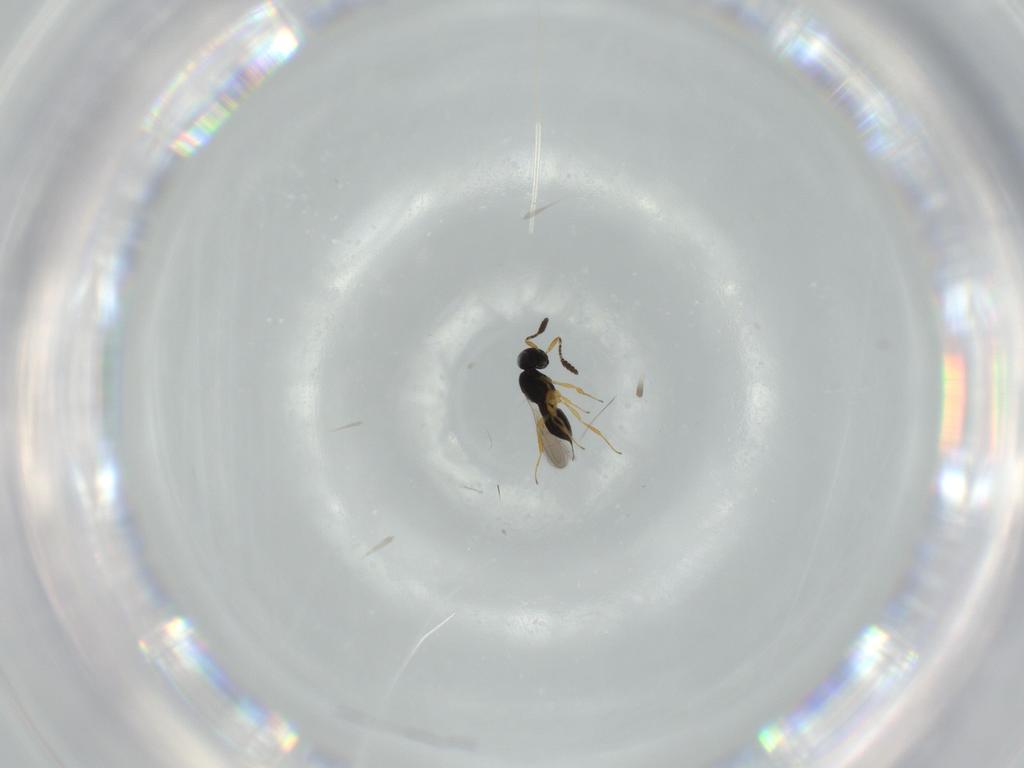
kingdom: Animalia
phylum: Arthropoda
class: Insecta
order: Hymenoptera
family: Scelionidae
